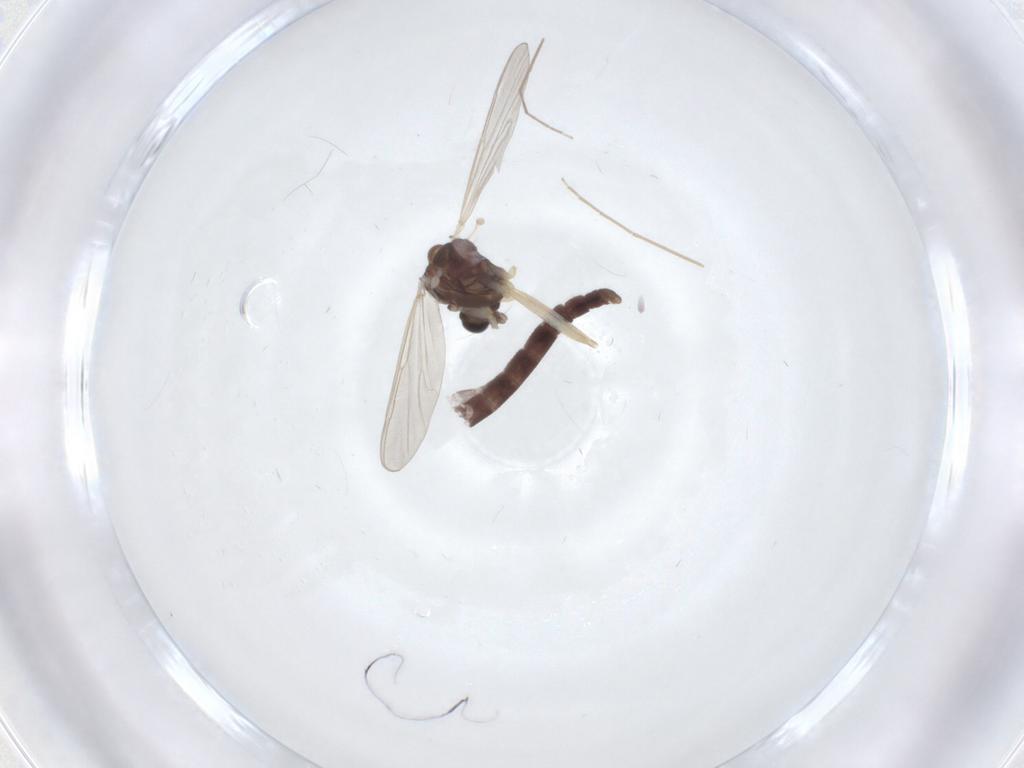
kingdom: Animalia
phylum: Arthropoda
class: Insecta
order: Diptera
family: Chironomidae
